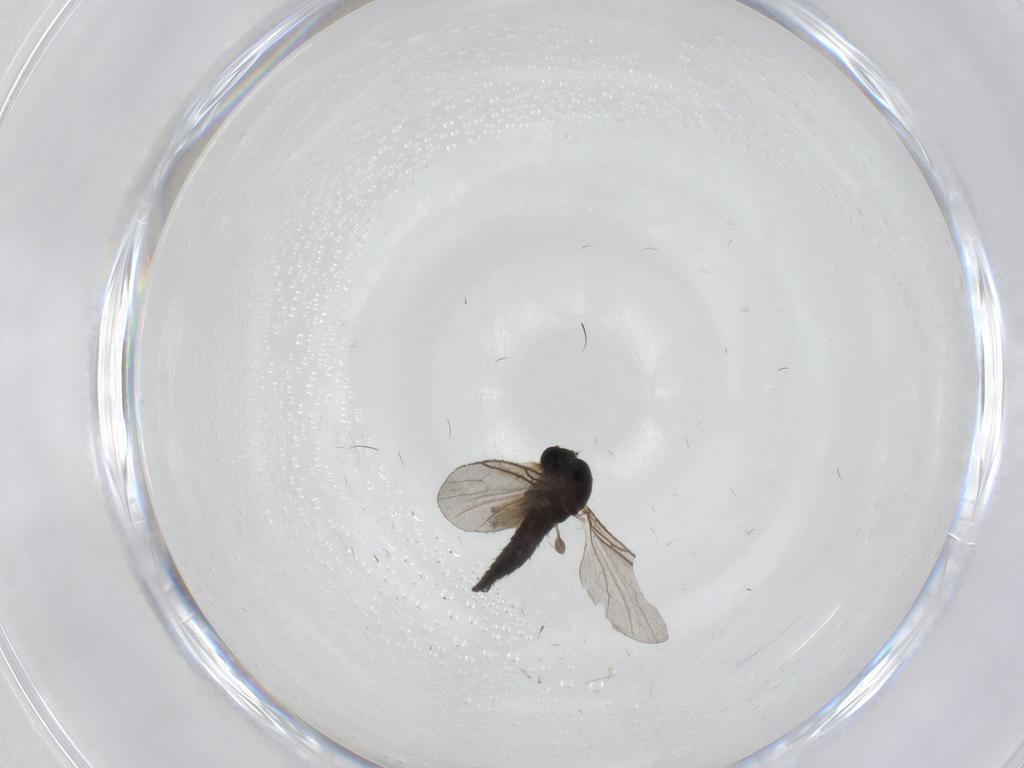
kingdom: Animalia
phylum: Arthropoda
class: Insecta
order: Diptera
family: Sciaridae
